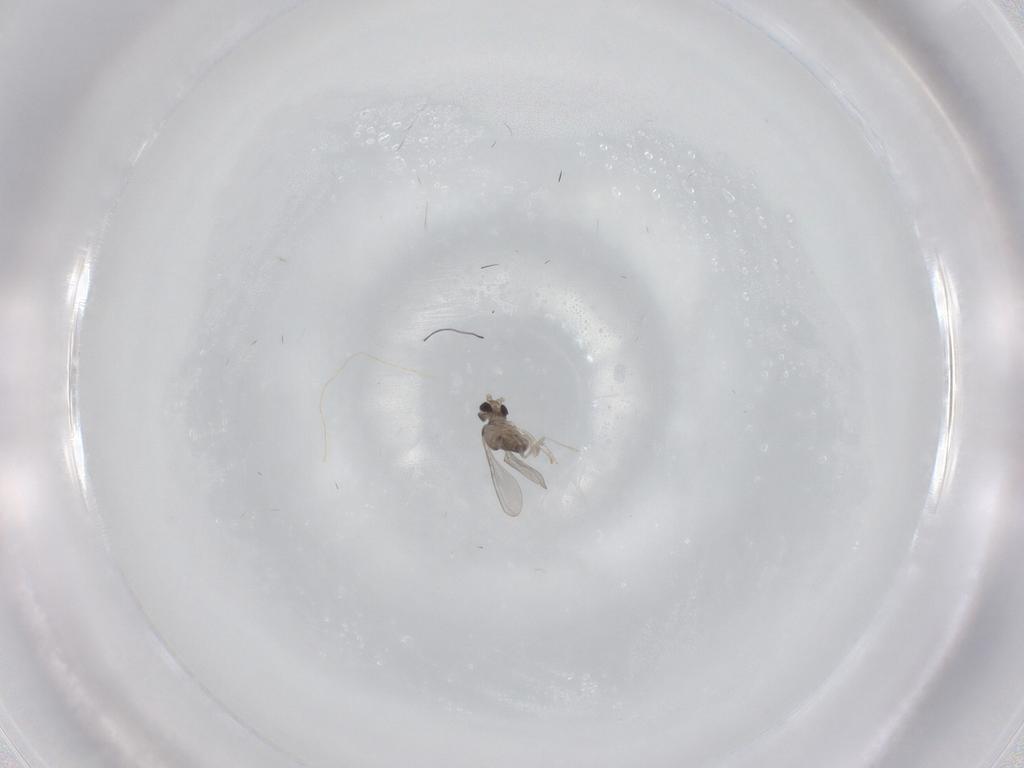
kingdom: Animalia
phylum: Arthropoda
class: Insecta
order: Diptera
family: Cecidomyiidae
